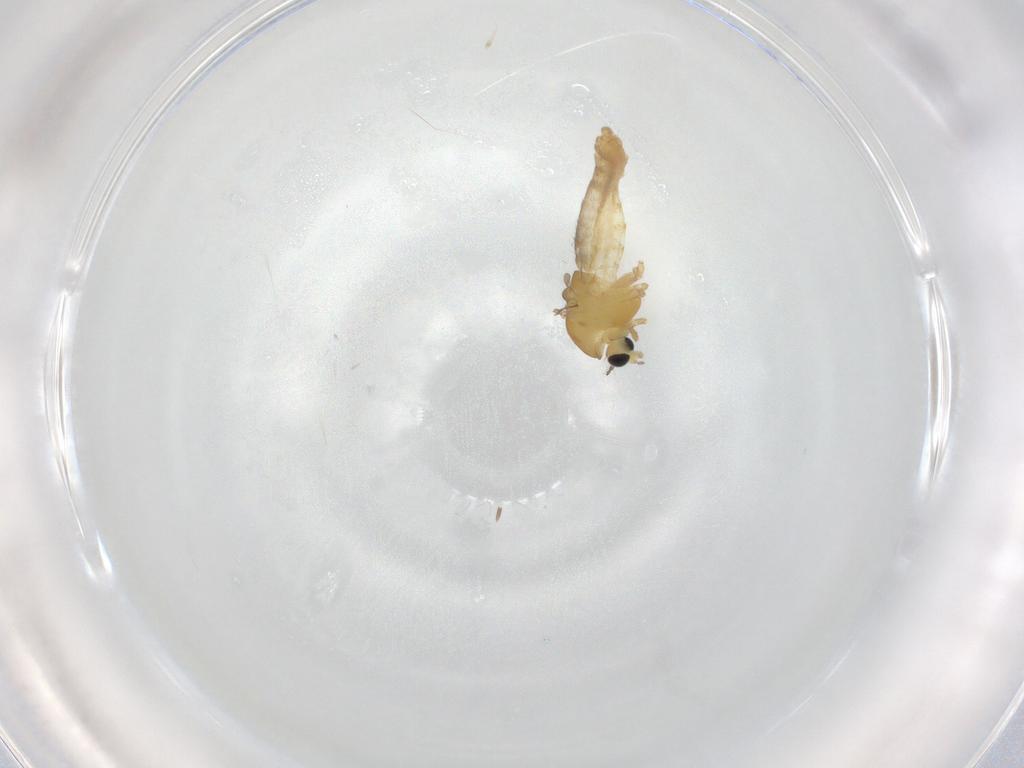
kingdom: Animalia
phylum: Arthropoda
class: Insecta
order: Diptera
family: Chironomidae
